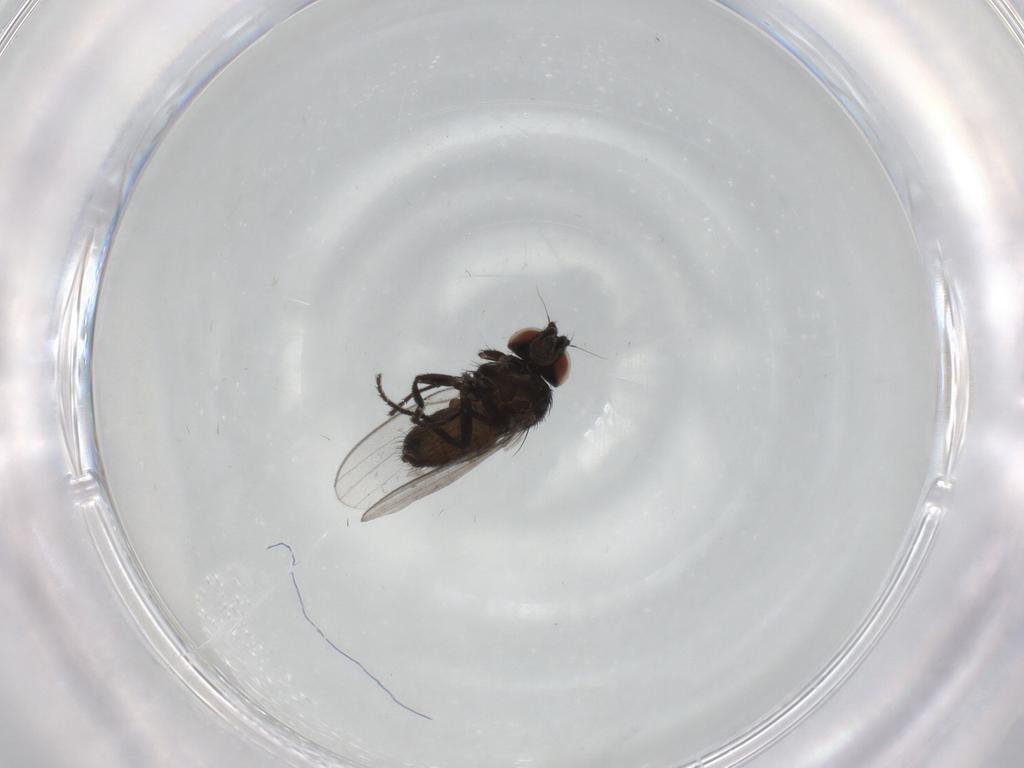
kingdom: Animalia
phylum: Arthropoda
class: Insecta
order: Diptera
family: Milichiidae
